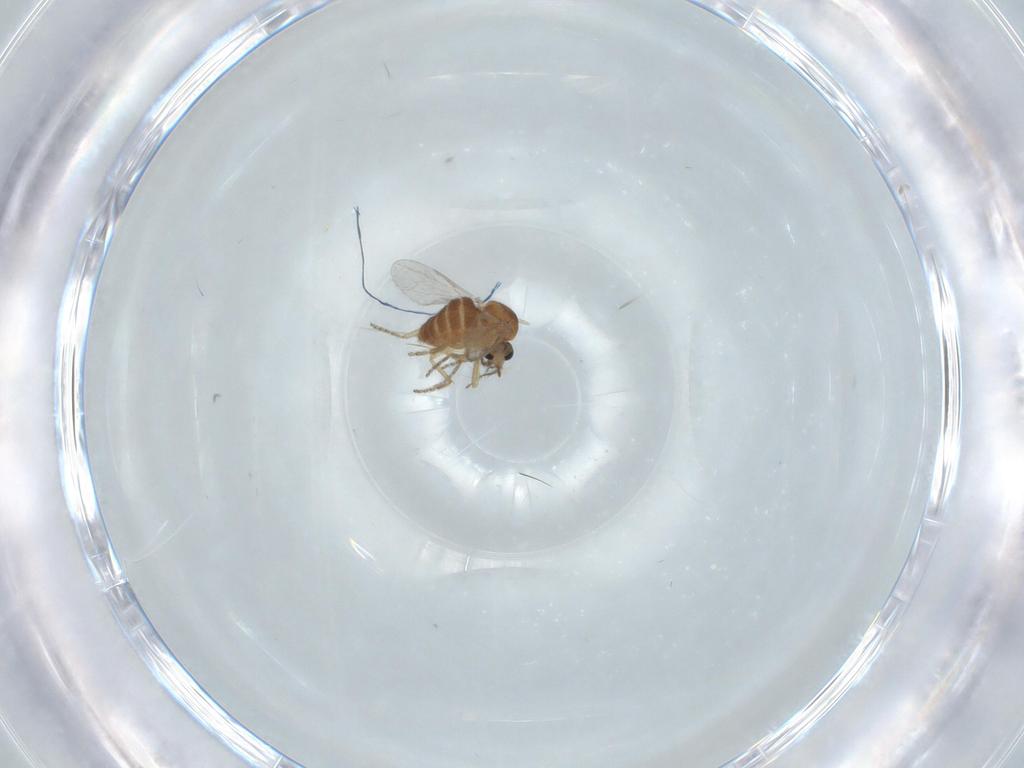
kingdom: Animalia
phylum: Arthropoda
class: Insecta
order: Diptera
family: Ceratopogonidae
